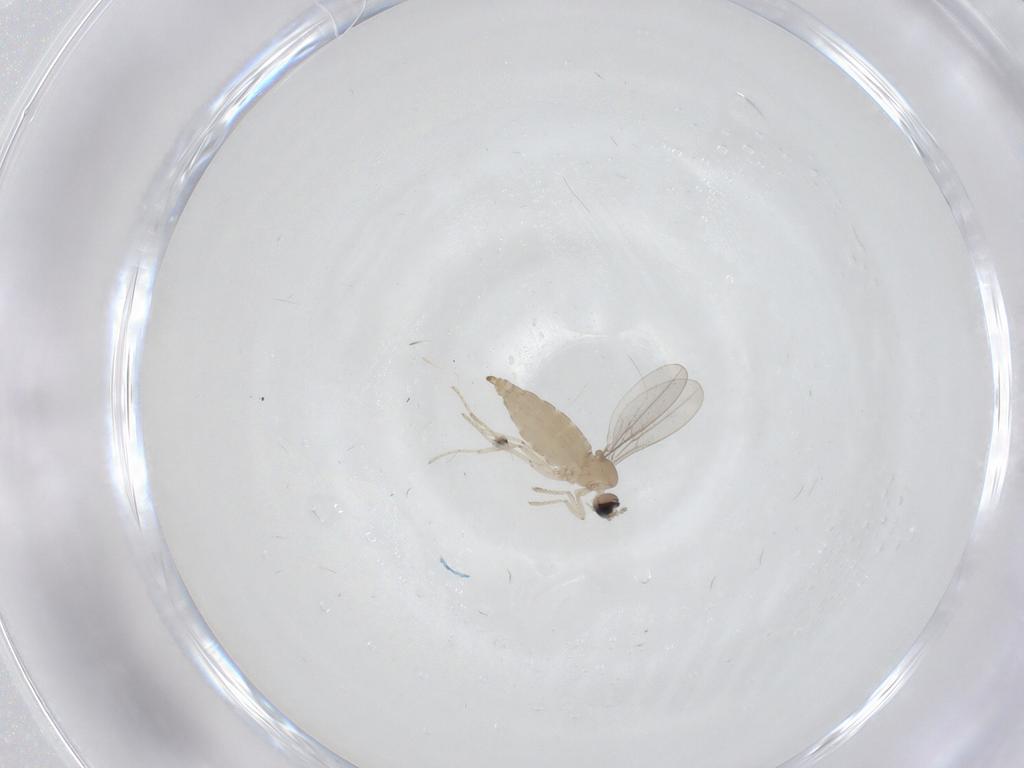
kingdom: Animalia
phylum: Arthropoda
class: Insecta
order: Diptera
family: Cecidomyiidae
